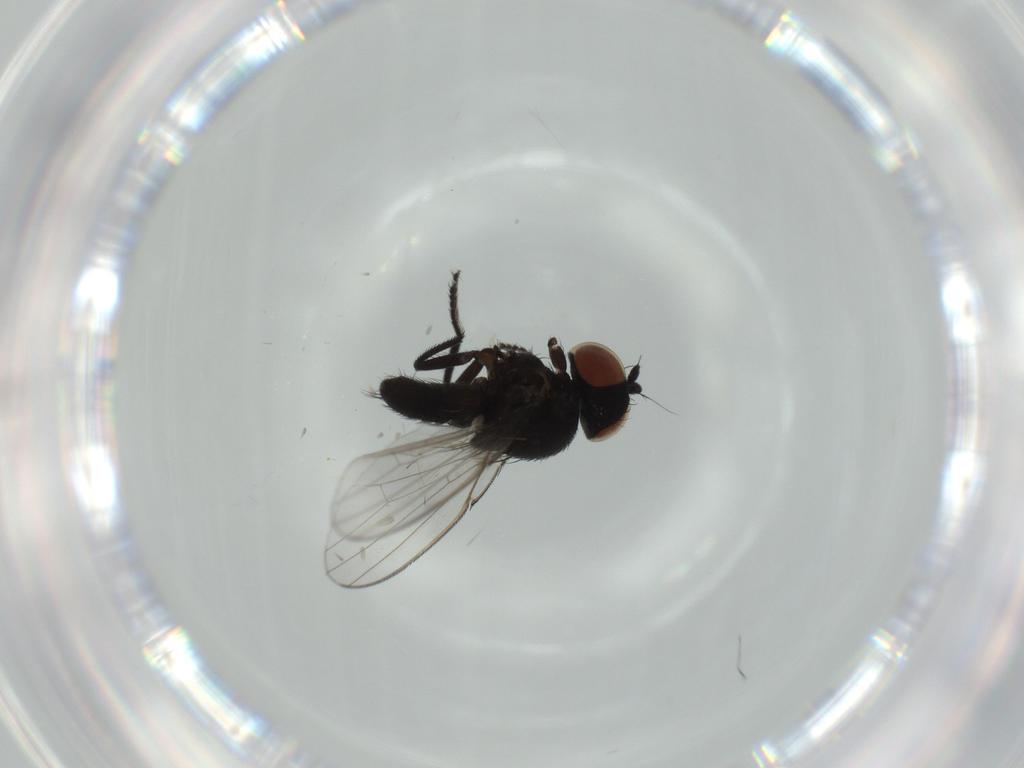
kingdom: Animalia
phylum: Arthropoda
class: Insecta
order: Diptera
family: Milichiidae
